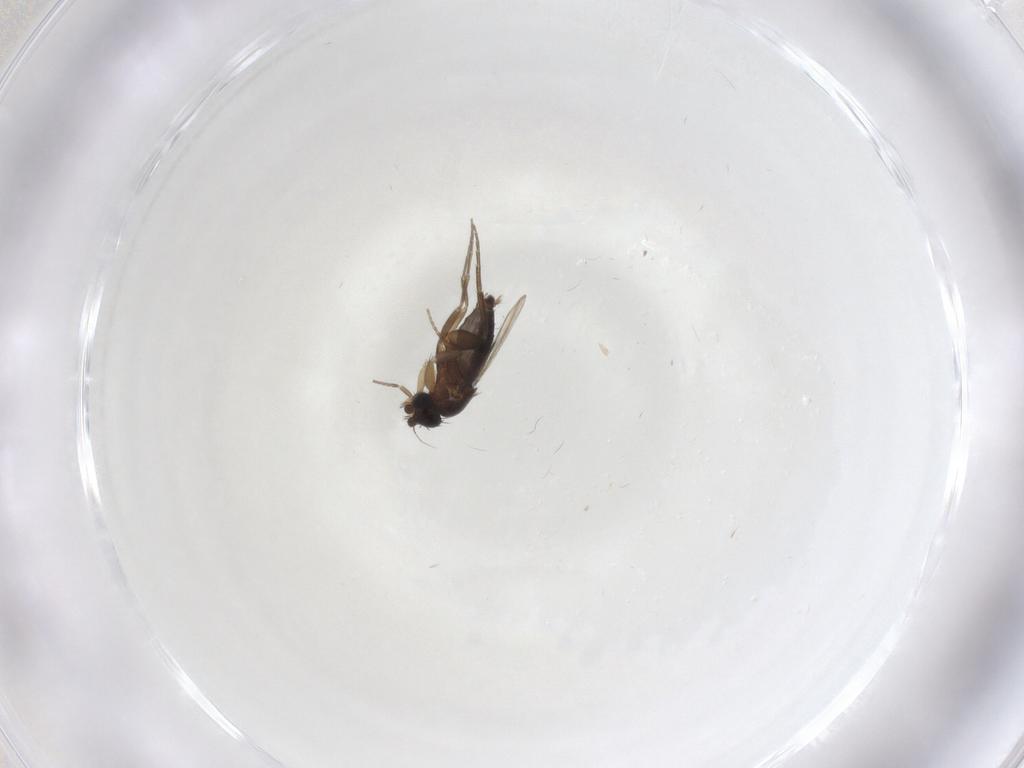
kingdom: Animalia
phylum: Arthropoda
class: Insecta
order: Diptera
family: Phoridae
